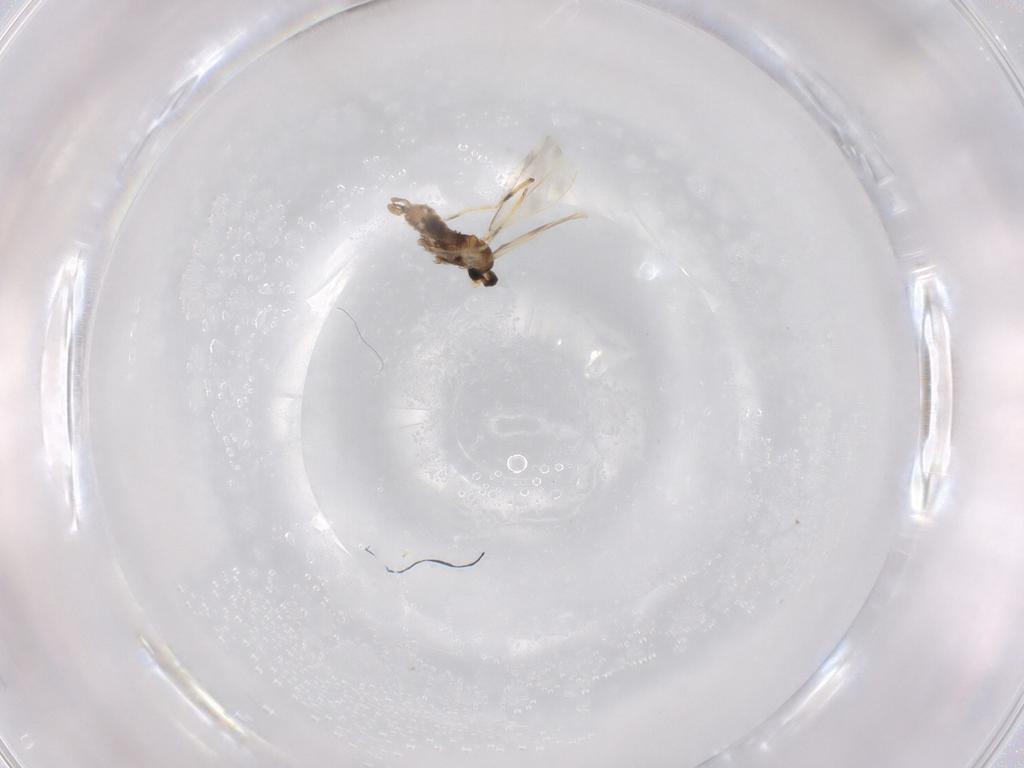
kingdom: Animalia
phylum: Arthropoda
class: Insecta
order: Diptera
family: Cecidomyiidae
